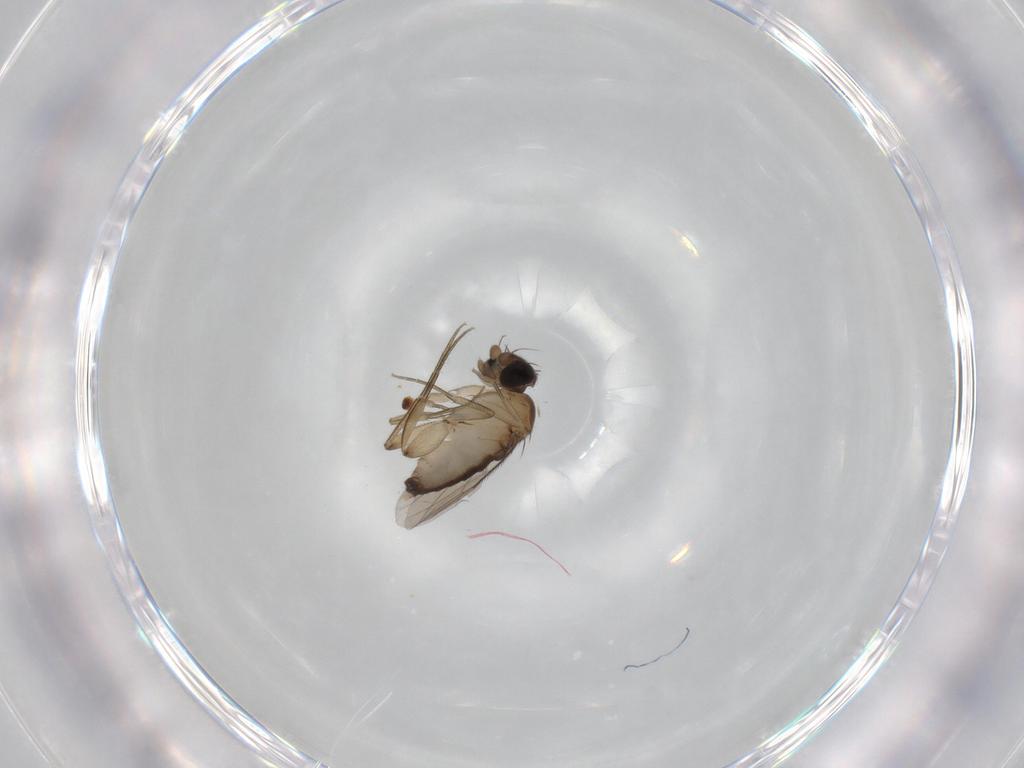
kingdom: Animalia
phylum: Arthropoda
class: Insecta
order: Diptera
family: Phoridae
